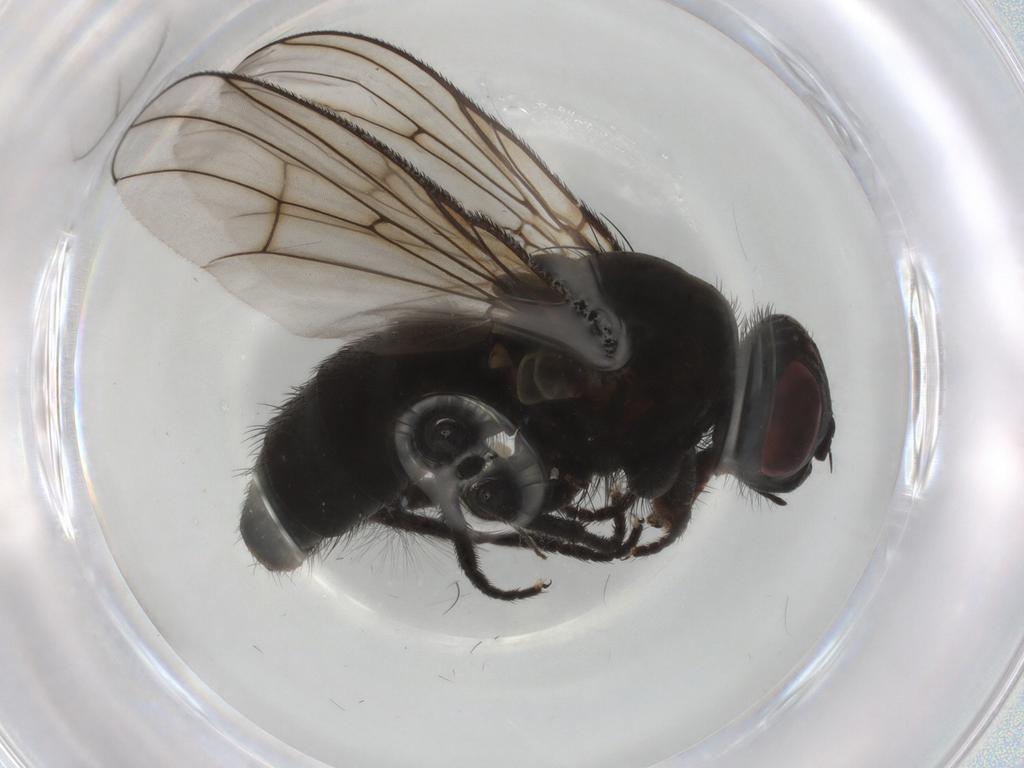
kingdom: Animalia
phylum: Arthropoda
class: Insecta
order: Diptera
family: Muscidae
